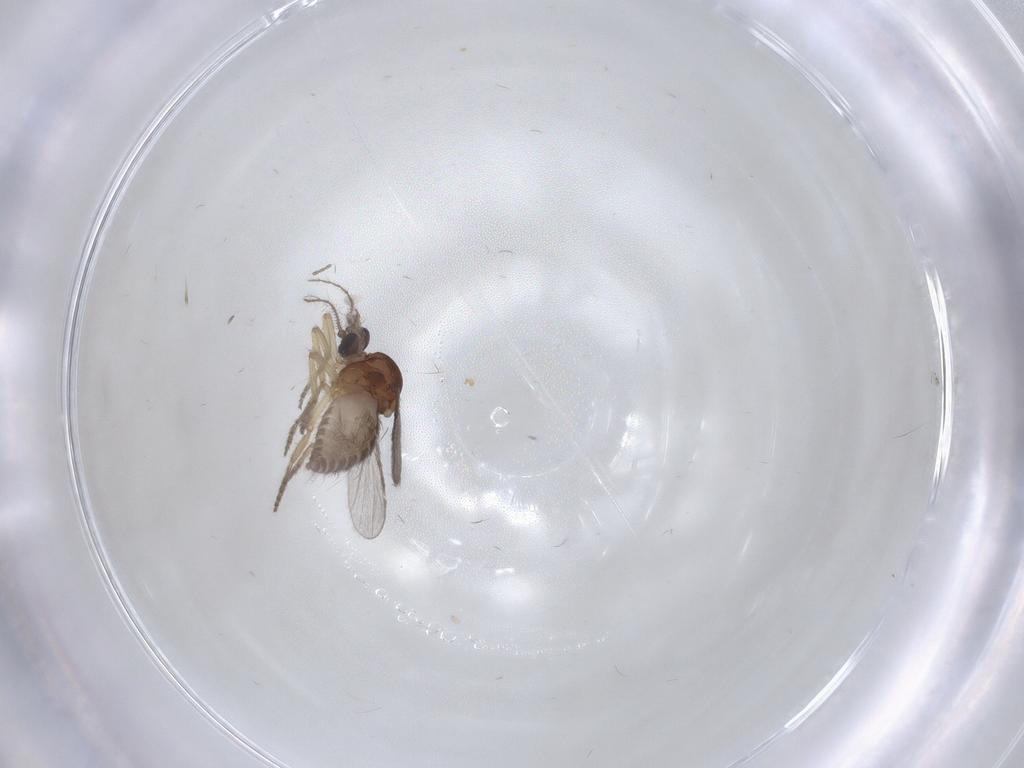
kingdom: Animalia
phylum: Arthropoda
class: Insecta
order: Diptera
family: Ceratopogonidae
